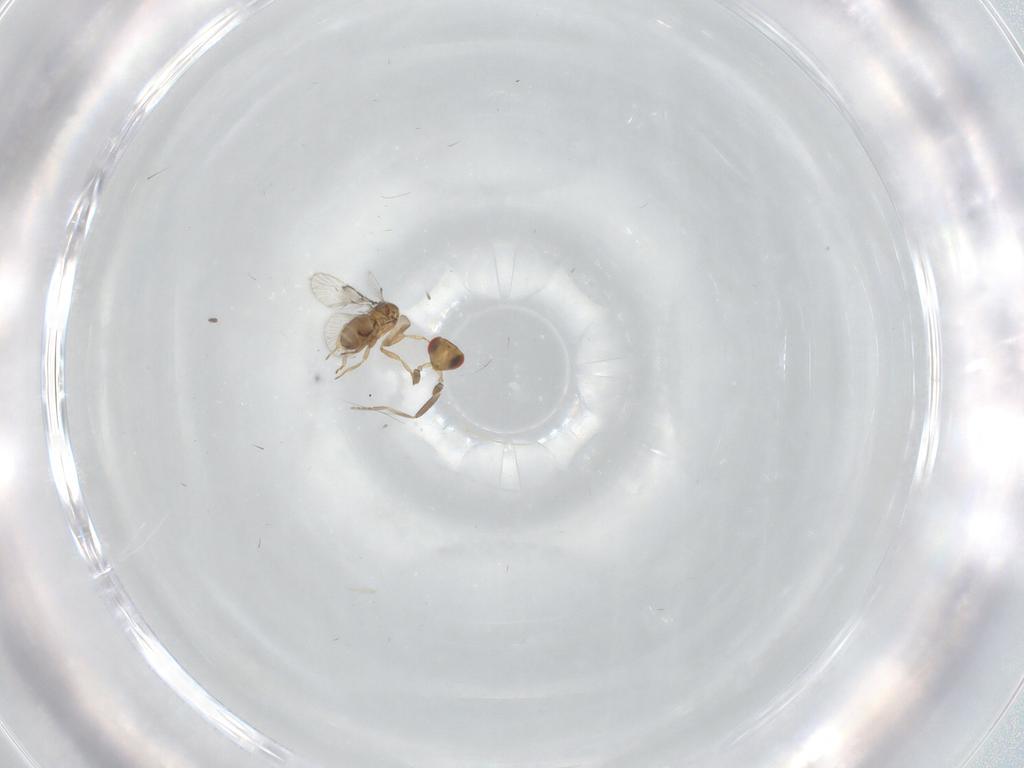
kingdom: Animalia
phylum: Arthropoda
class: Insecta
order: Diptera
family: Chironomidae
